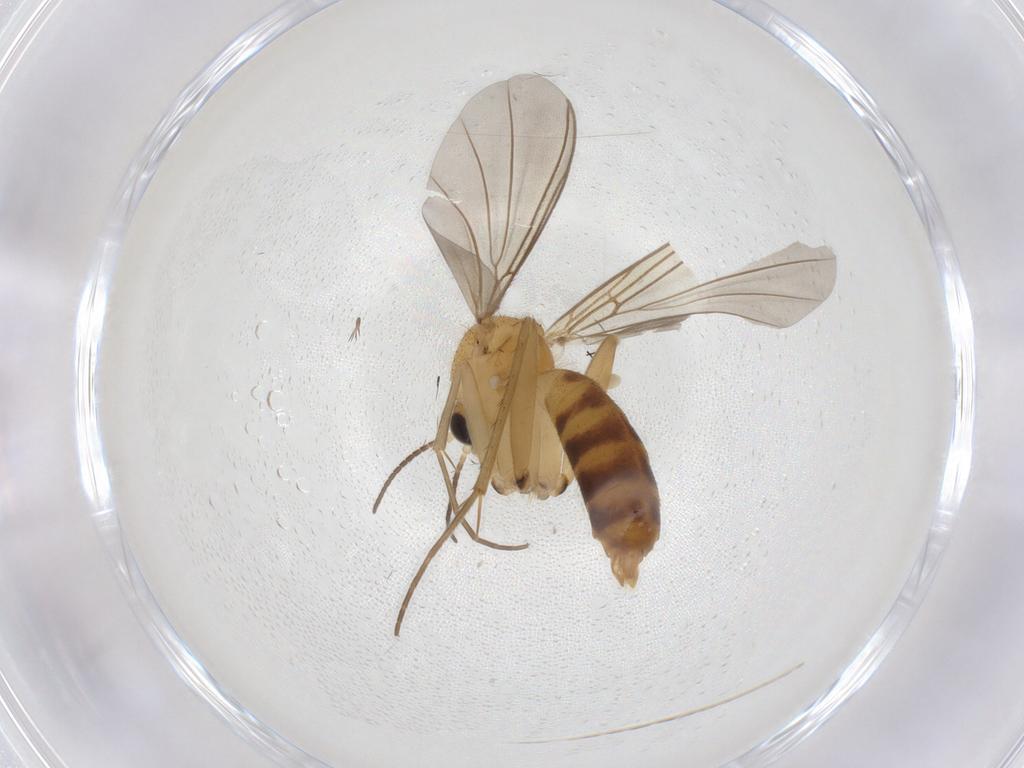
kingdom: Animalia
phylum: Arthropoda
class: Insecta
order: Diptera
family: Mycetophilidae
